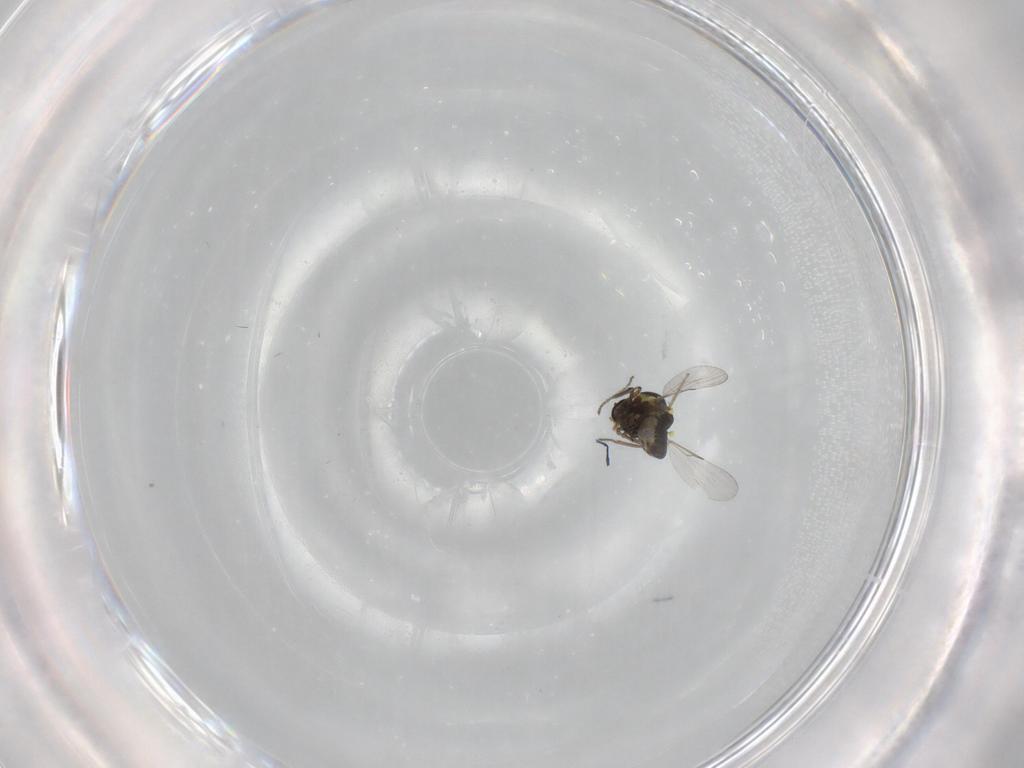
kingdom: Animalia
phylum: Arthropoda
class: Insecta
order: Diptera
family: Ceratopogonidae
